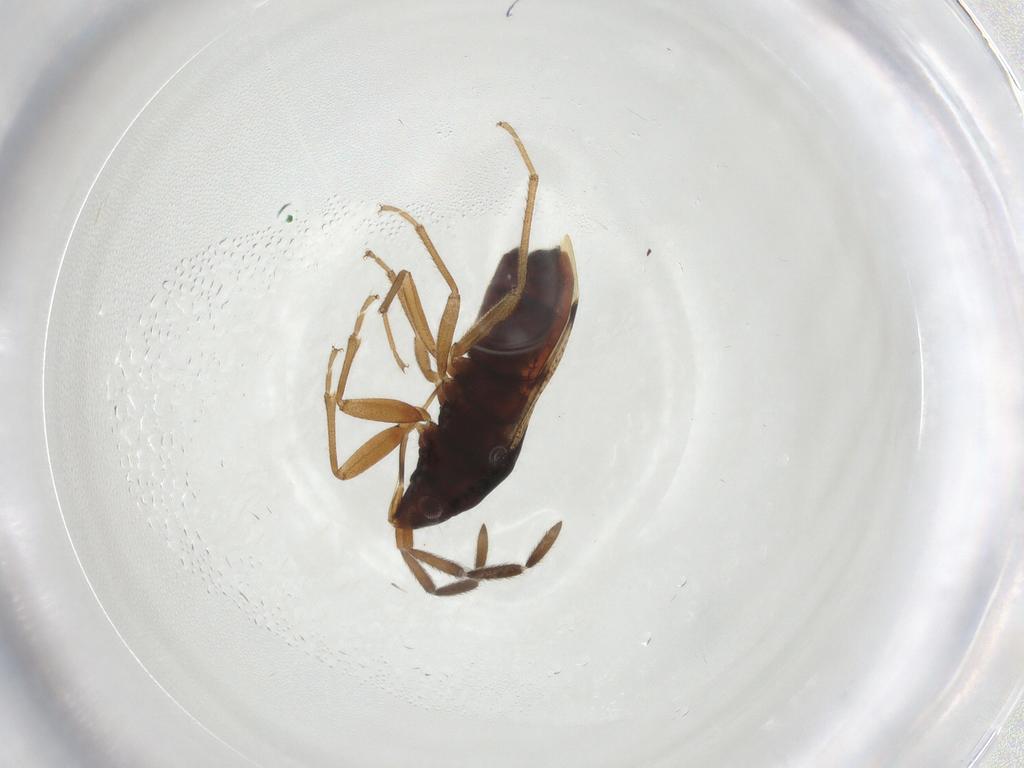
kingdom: Animalia
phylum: Arthropoda
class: Insecta
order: Hemiptera
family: Rhyparochromidae
